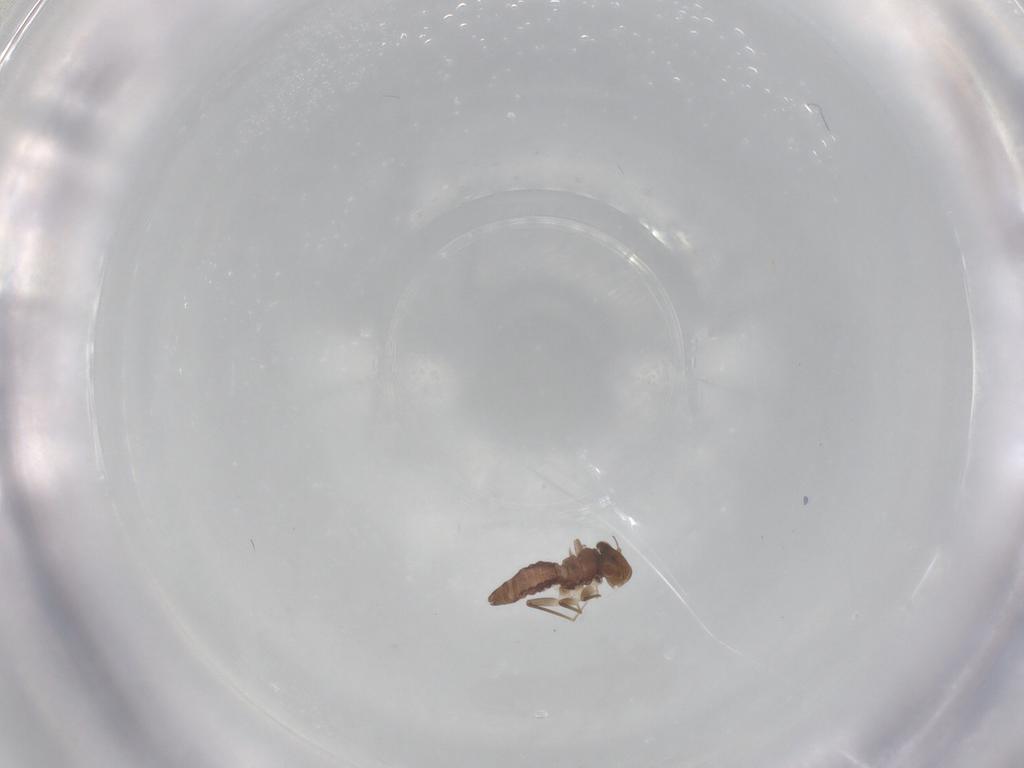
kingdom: Animalia
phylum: Arthropoda
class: Insecta
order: Psocodea
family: Lepidopsocidae
